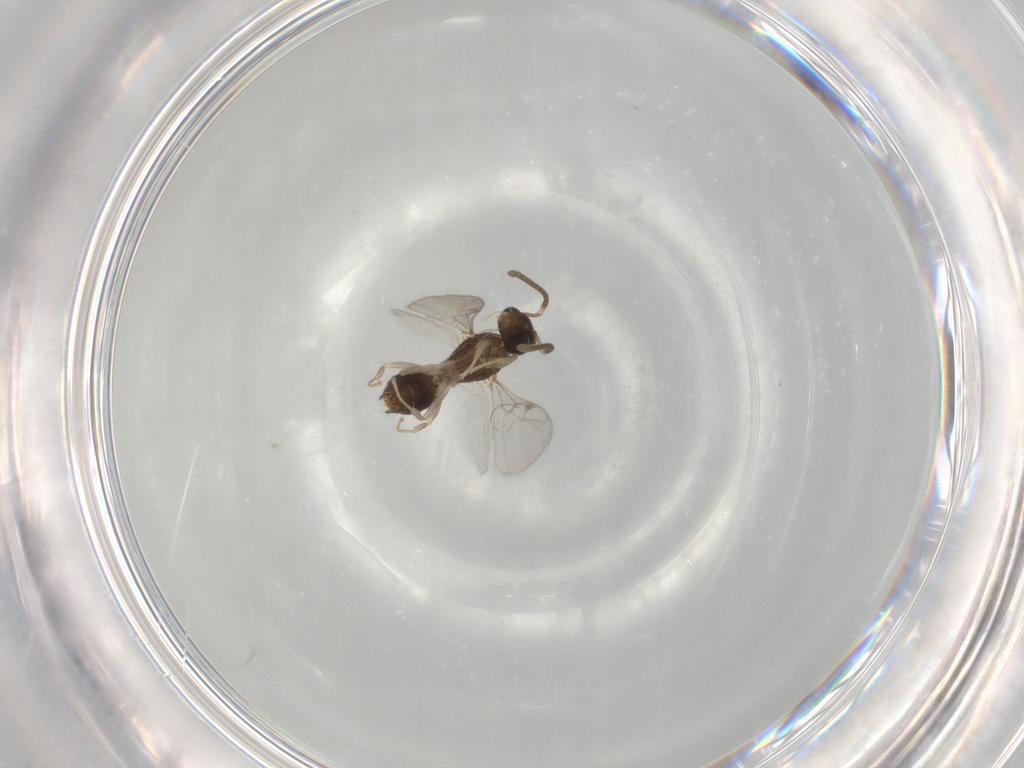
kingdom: Animalia
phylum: Arthropoda
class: Insecta
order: Hymenoptera
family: Formicidae
